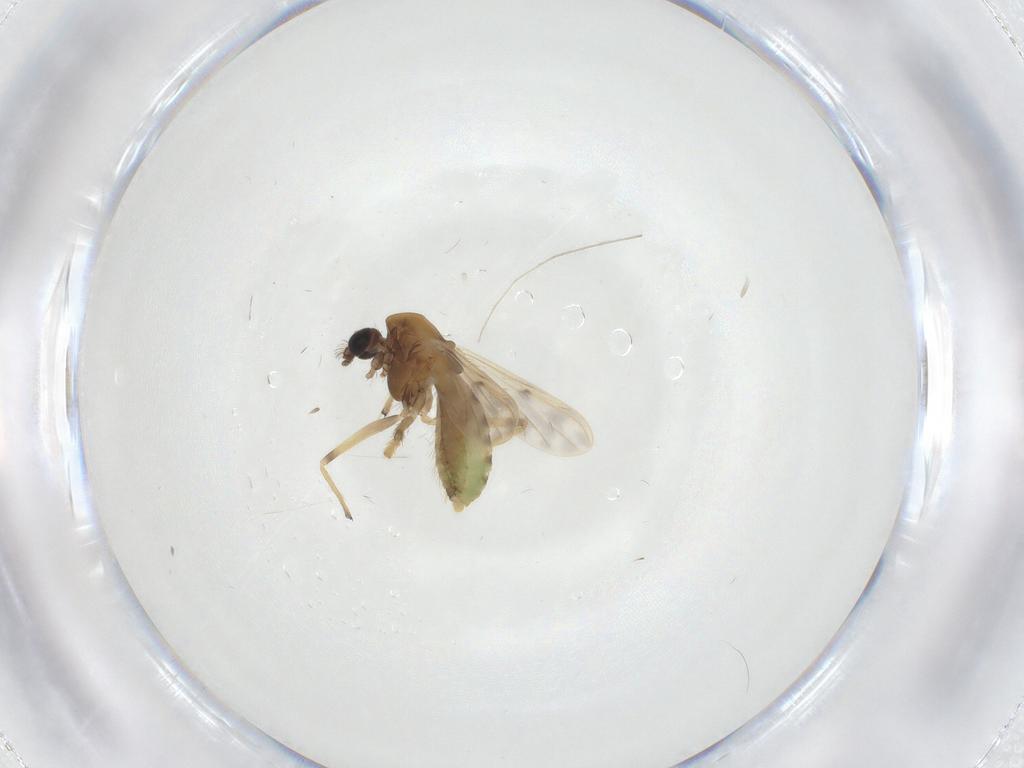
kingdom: Animalia
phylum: Arthropoda
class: Insecta
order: Diptera
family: Chironomidae
